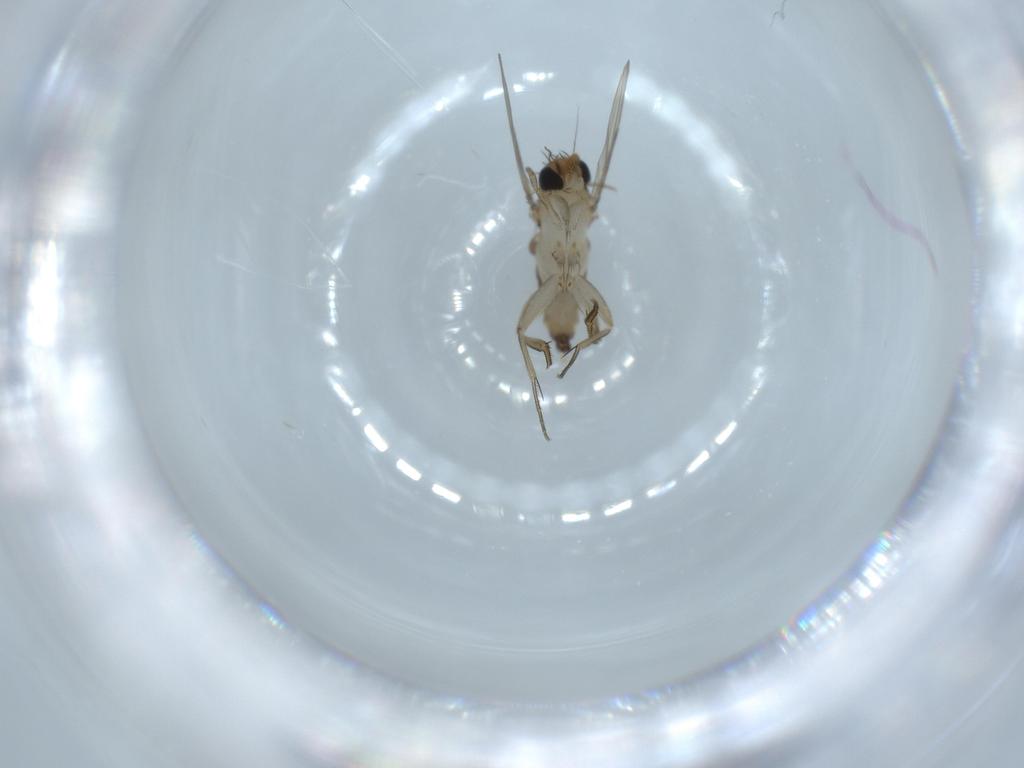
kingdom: Animalia
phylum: Arthropoda
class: Insecta
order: Diptera
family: Phoridae
